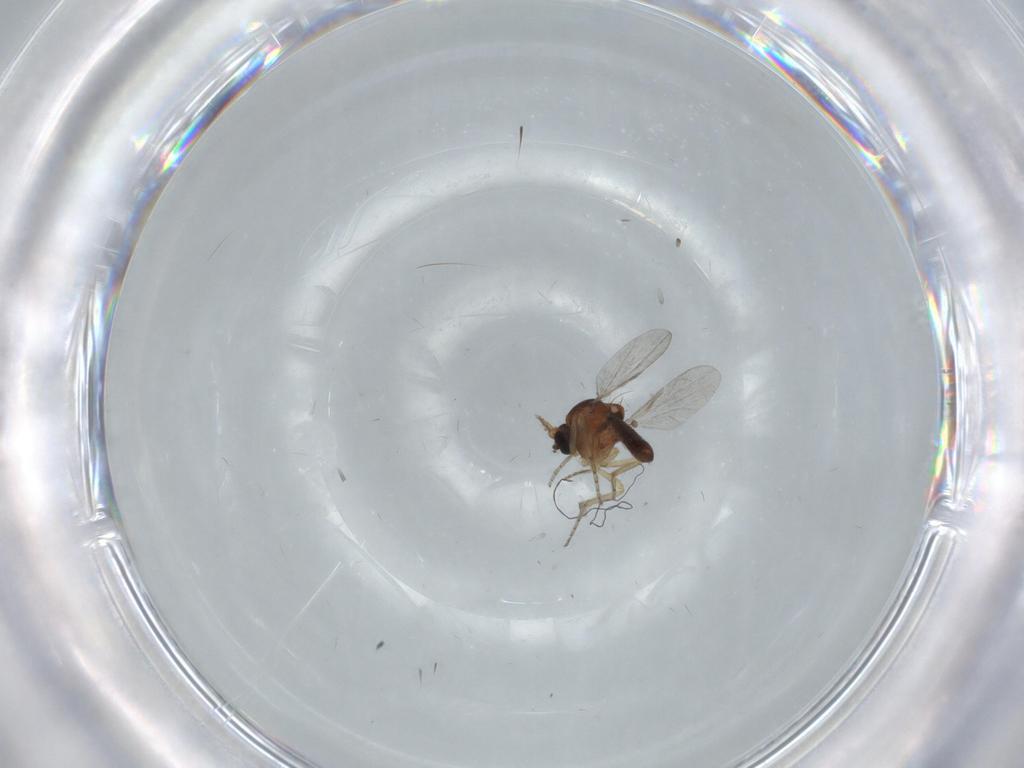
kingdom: Animalia
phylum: Arthropoda
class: Insecta
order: Diptera
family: Ceratopogonidae
